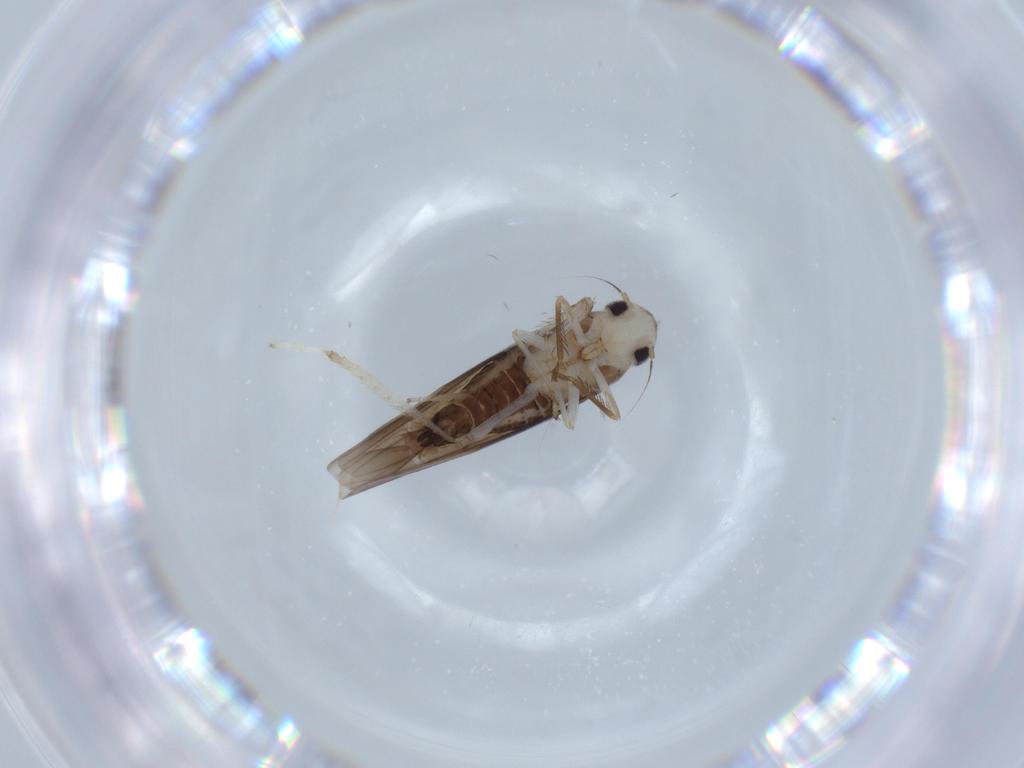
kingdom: Animalia
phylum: Arthropoda
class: Insecta
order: Hemiptera
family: Cicadellidae
